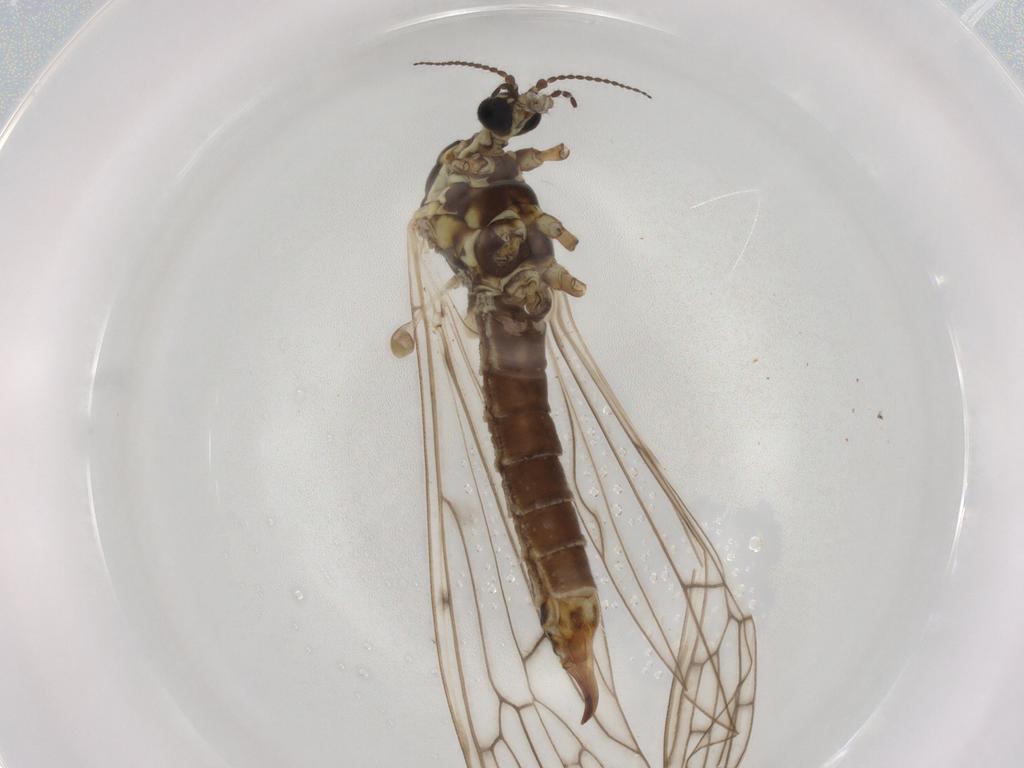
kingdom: Animalia
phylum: Arthropoda
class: Insecta
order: Diptera
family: Limoniidae
